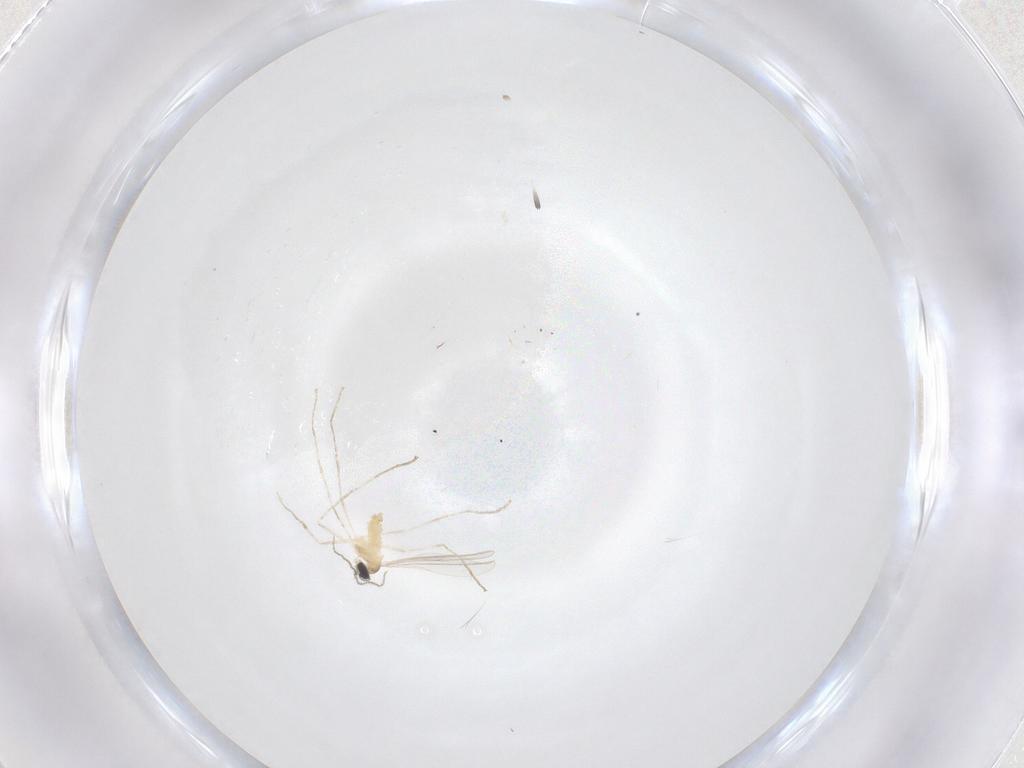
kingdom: Animalia
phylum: Arthropoda
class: Insecta
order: Diptera
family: Cecidomyiidae
